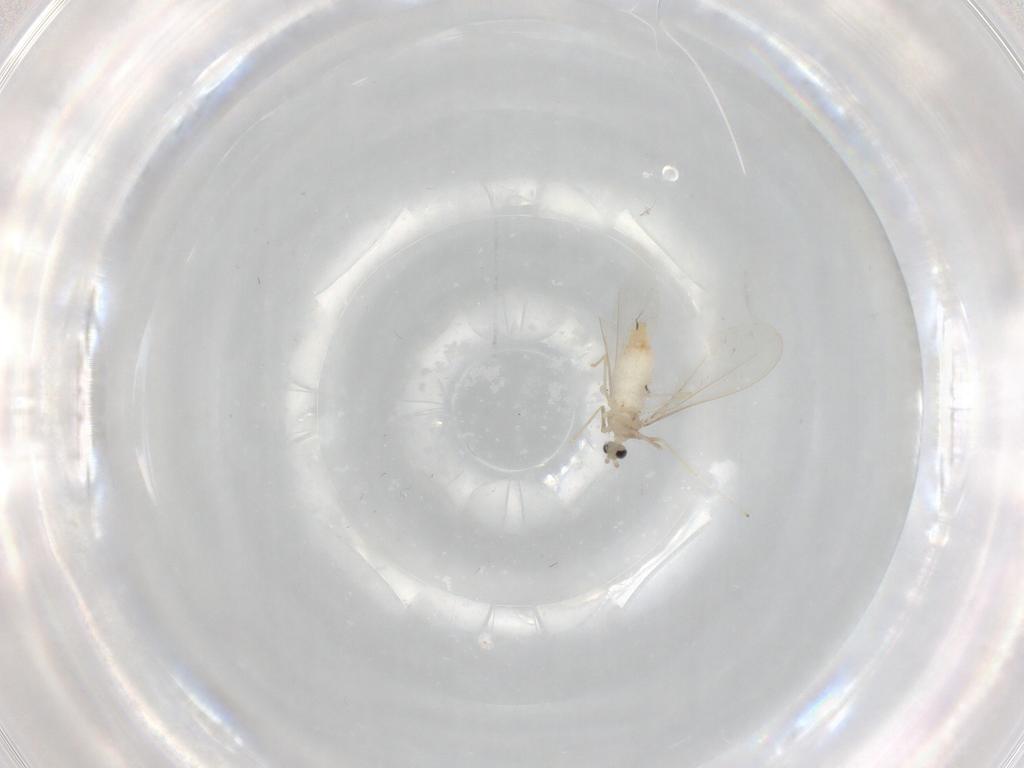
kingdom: Animalia
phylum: Arthropoda
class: Insecta
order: Diptera
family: Cecidomyiidae
